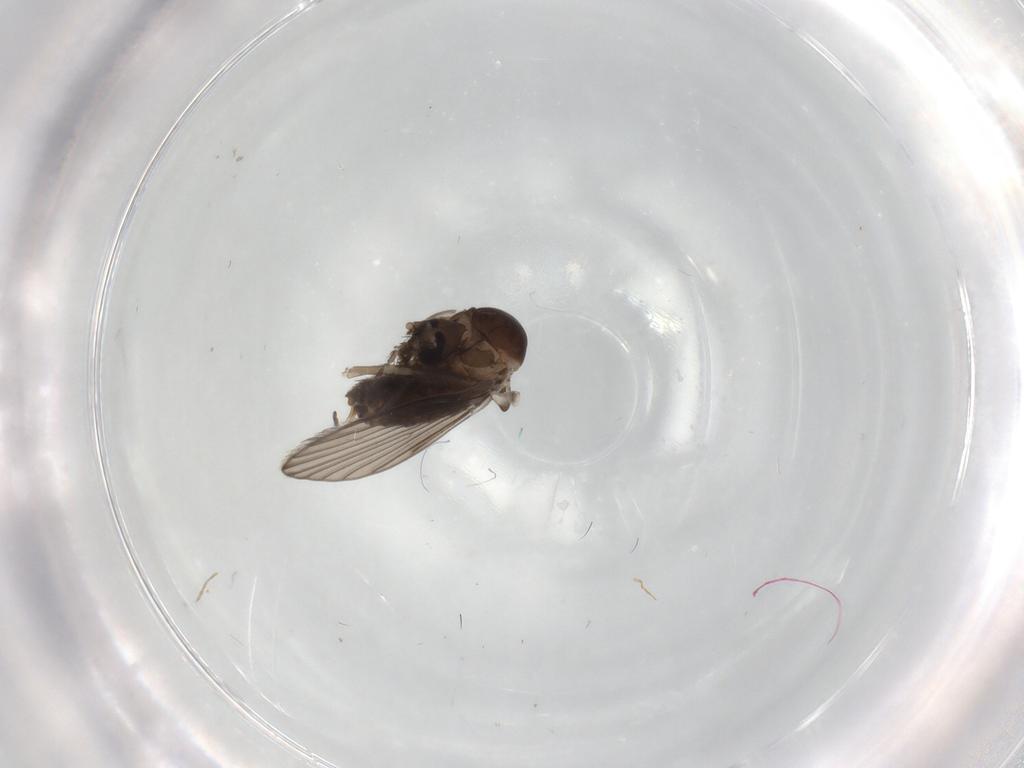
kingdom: Animalia
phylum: Arthropoda
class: Insecta
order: Diptera
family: Psychodidae
